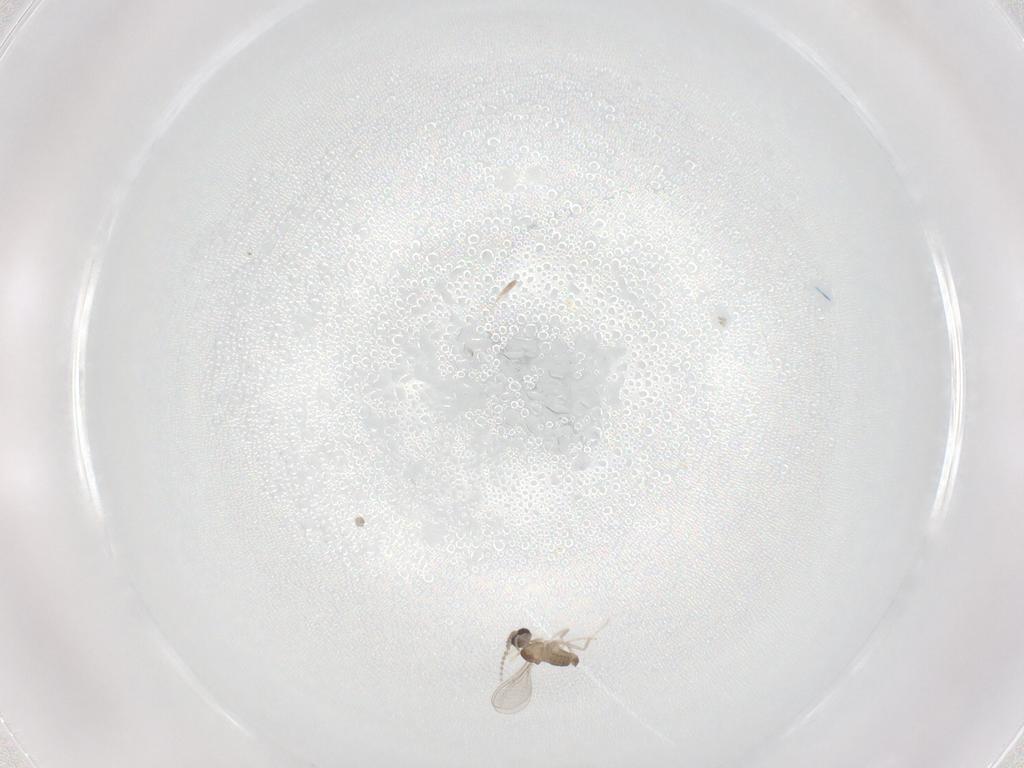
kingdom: Animalia
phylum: Arthropoda
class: Insecta
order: Diptera
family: Cecidomyiidae
